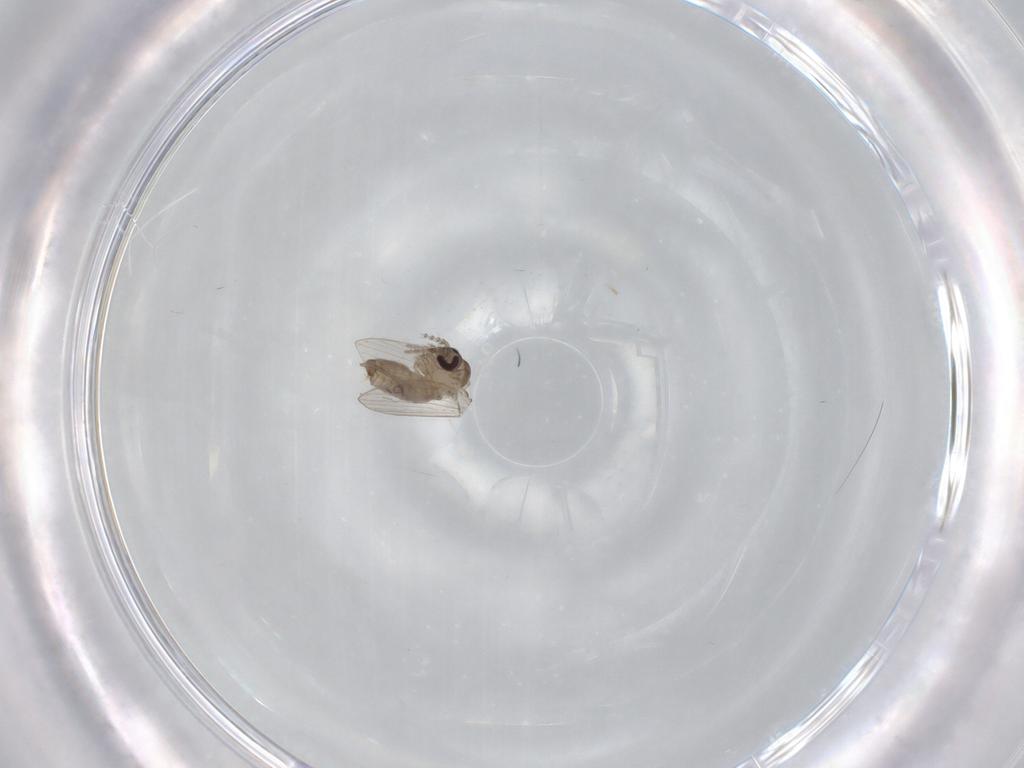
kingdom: Animalia
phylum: Arthropoda
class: Insecta
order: Diptera
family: Psychodidae
